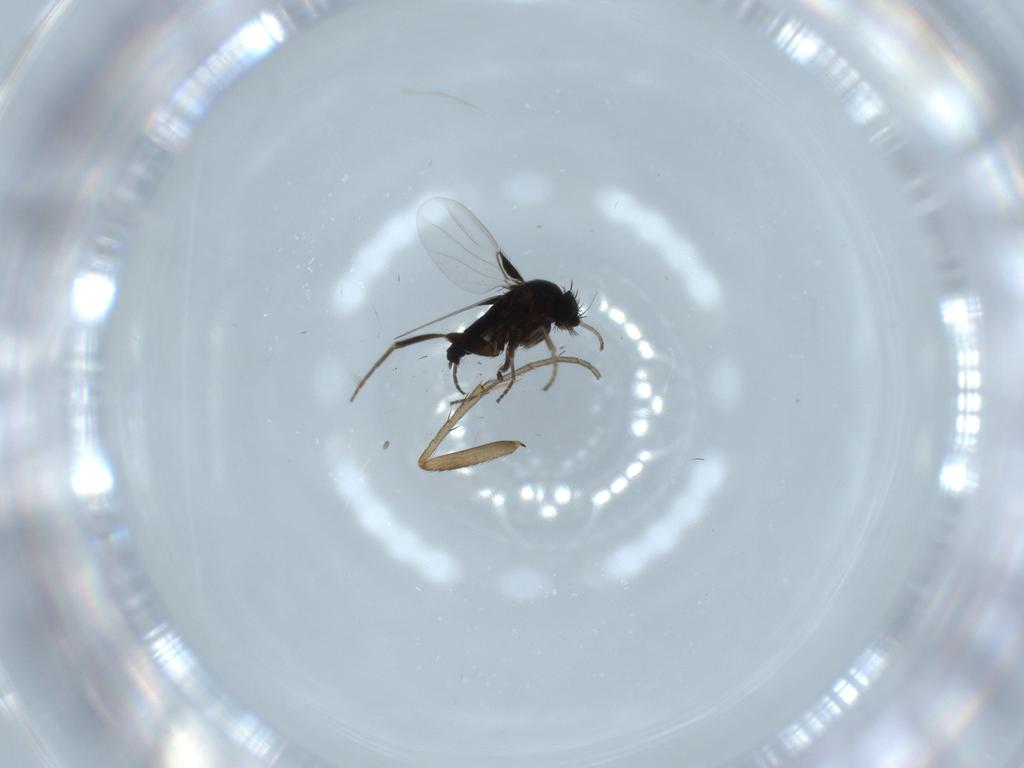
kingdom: Animalia
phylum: Arthropoda
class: Insecta
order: Diptera
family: Phoridae
